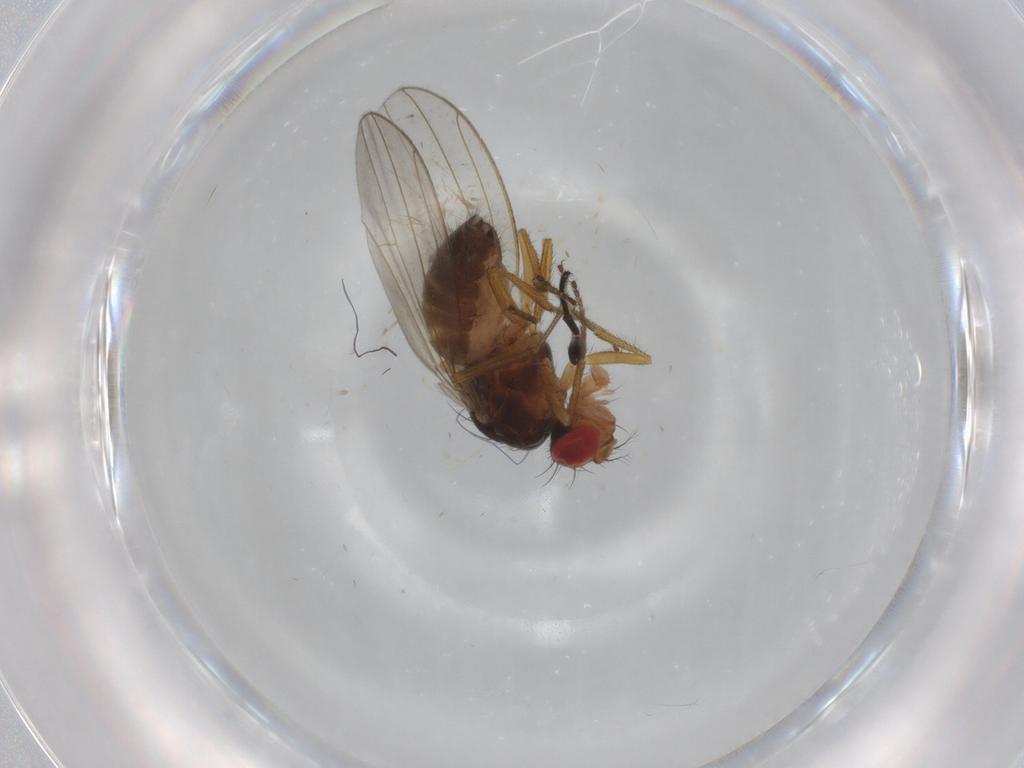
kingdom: Animalia
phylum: Arthropoda
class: Insecta
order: Diptera
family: Drosophilidae
